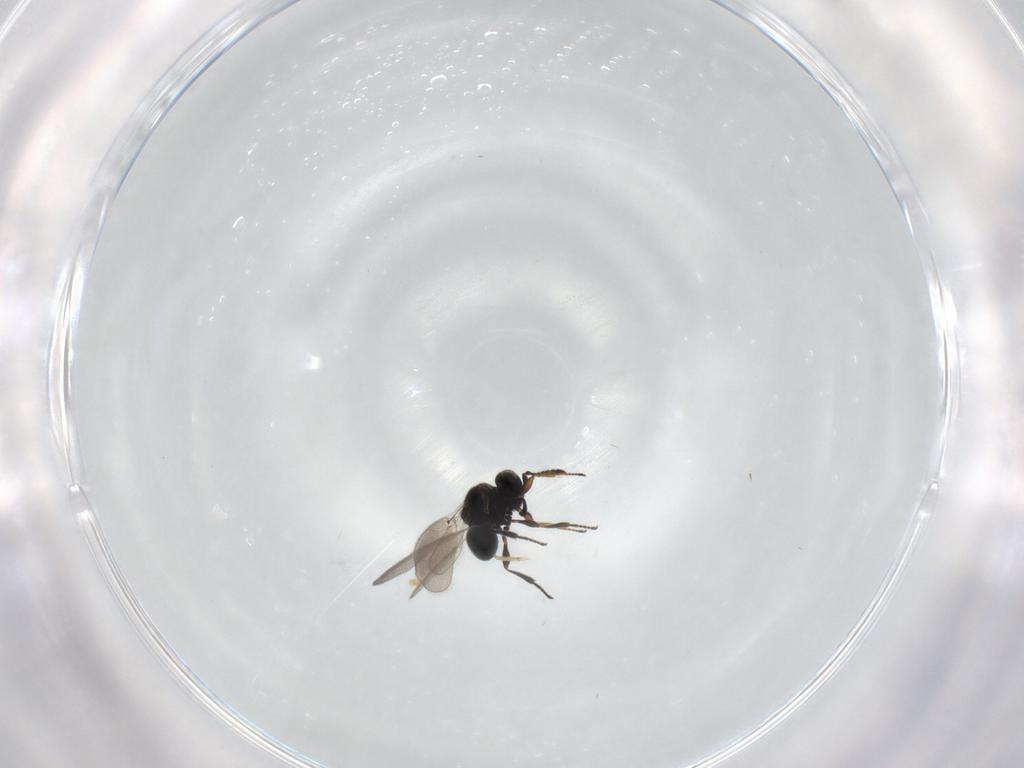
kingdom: Animalia
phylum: Arthropoda
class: Insecta
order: Hymenoptera
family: Platygastridae
